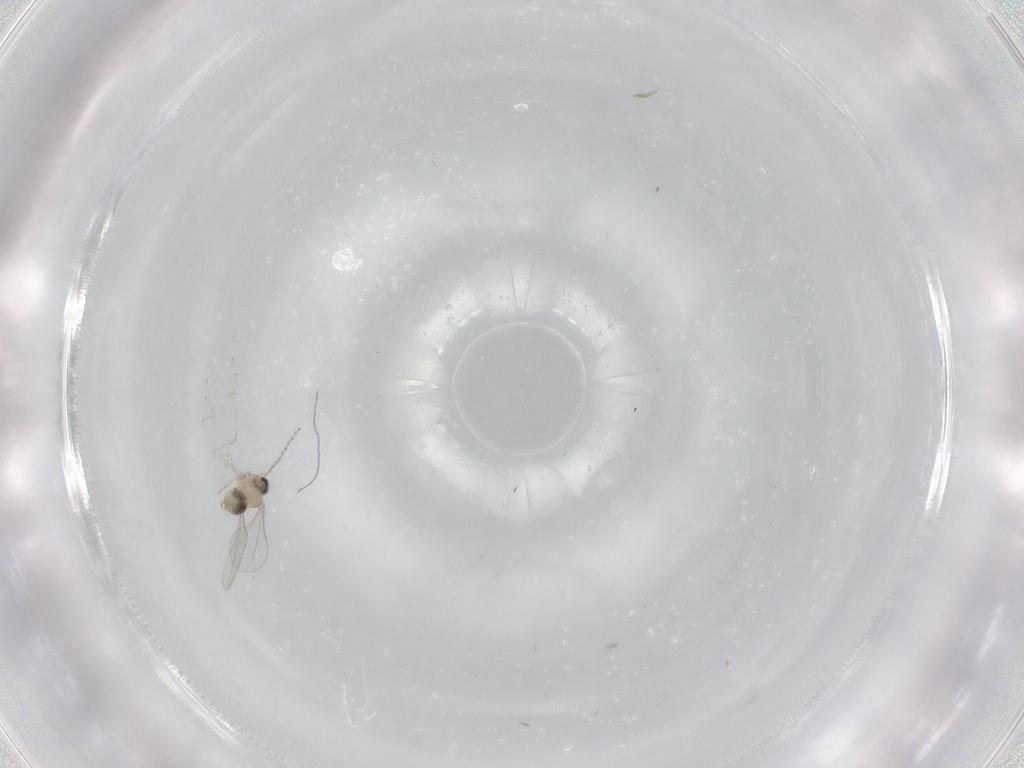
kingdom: Animalia
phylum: Arthropoda
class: Insecta
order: Diptera
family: Cecidomyiidae
